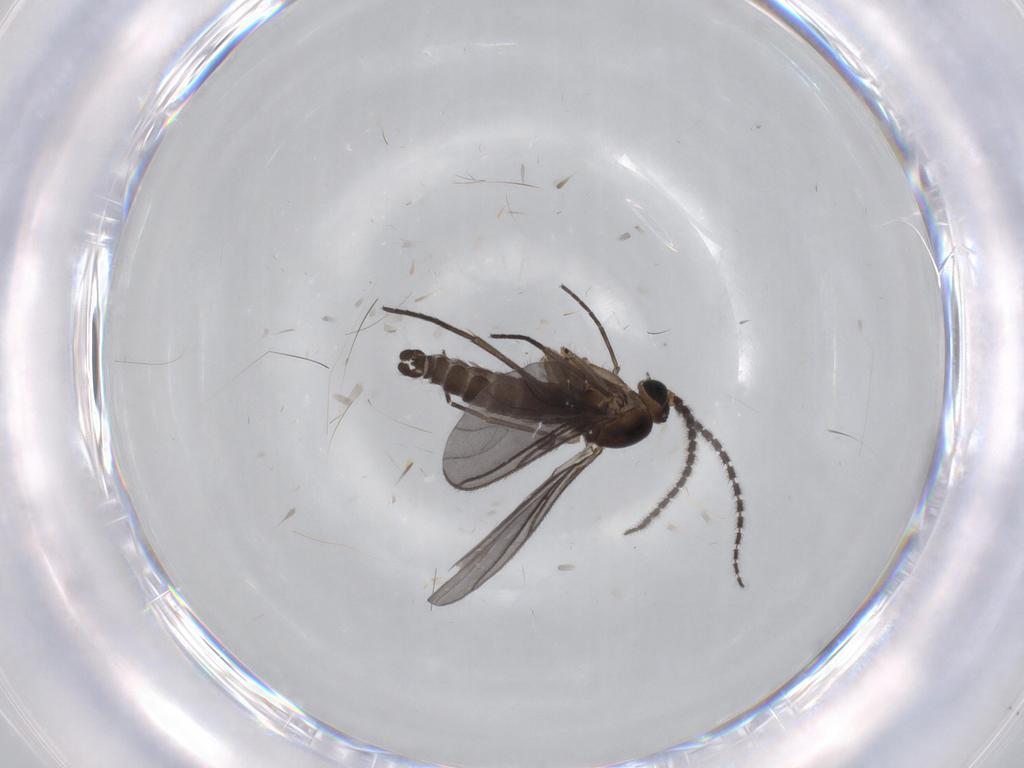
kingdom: Animalia
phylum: Arthropoda
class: Insecta
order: Diptera
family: Sciaridae
